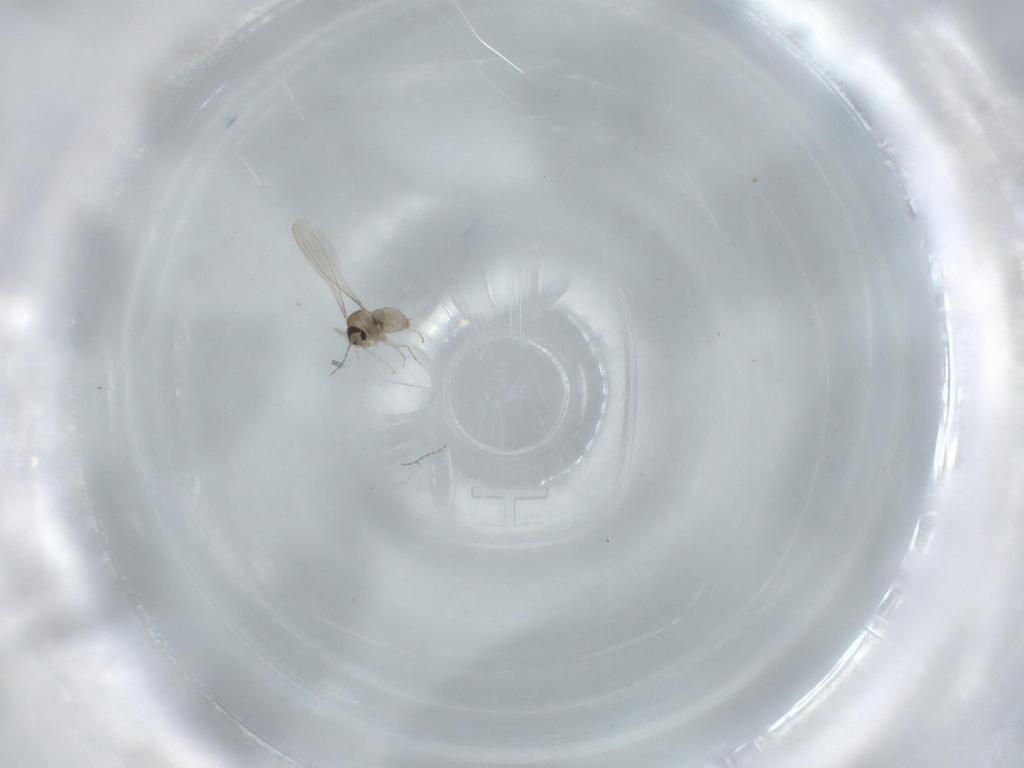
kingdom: Animalia
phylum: Arthropoda
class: Insecta
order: Diptera
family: Cecidomyiidae
